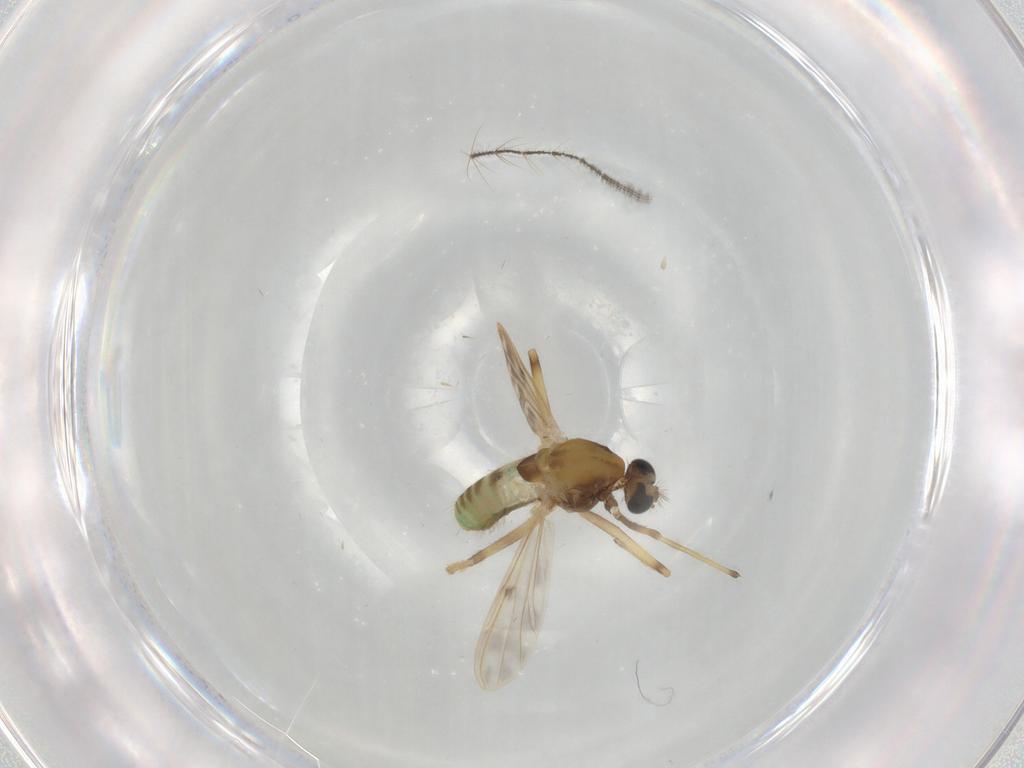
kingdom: Animalia
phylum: Arthropoda
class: Insecta
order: Diptera
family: Chironomidae
